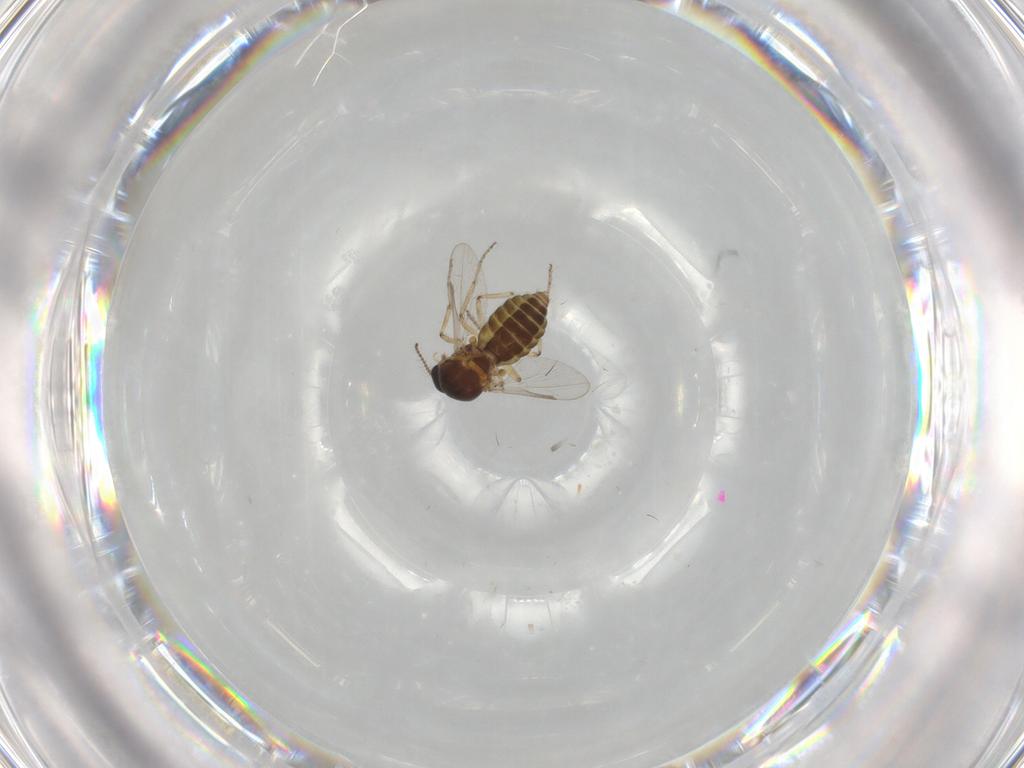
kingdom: Animalia
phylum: Arthropoda
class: Insecta
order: Diptera
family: Ceratopogonidae
